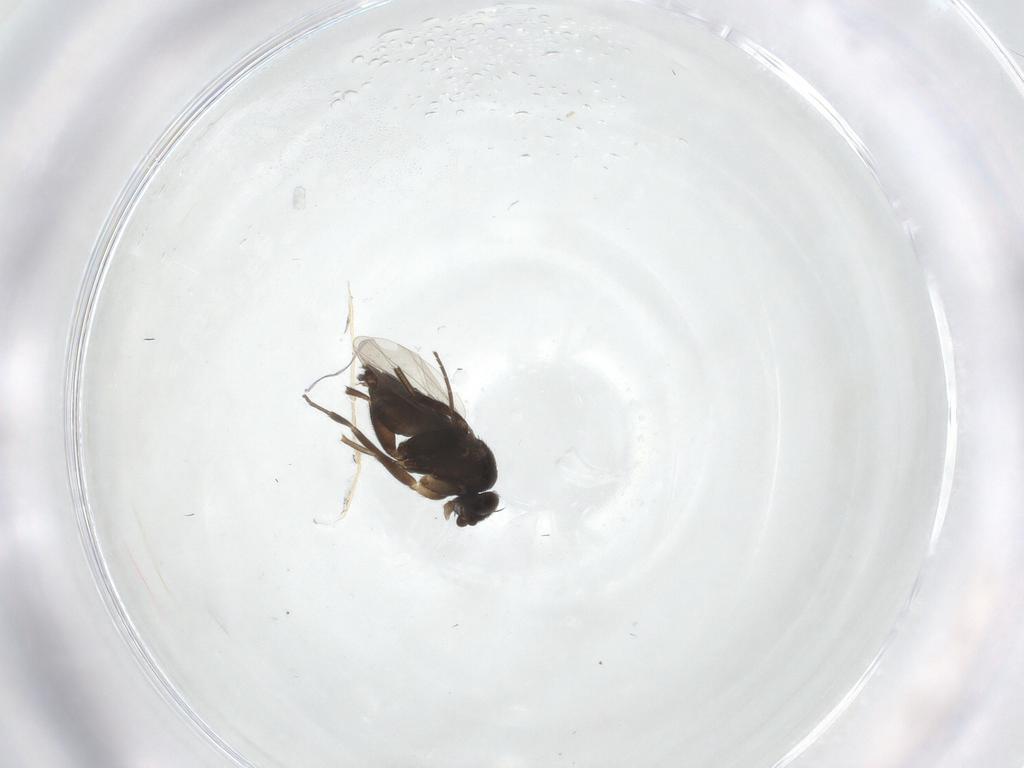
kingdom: Animalia
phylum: Arthropoda
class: Insecta
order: Diptera
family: Phoridae
